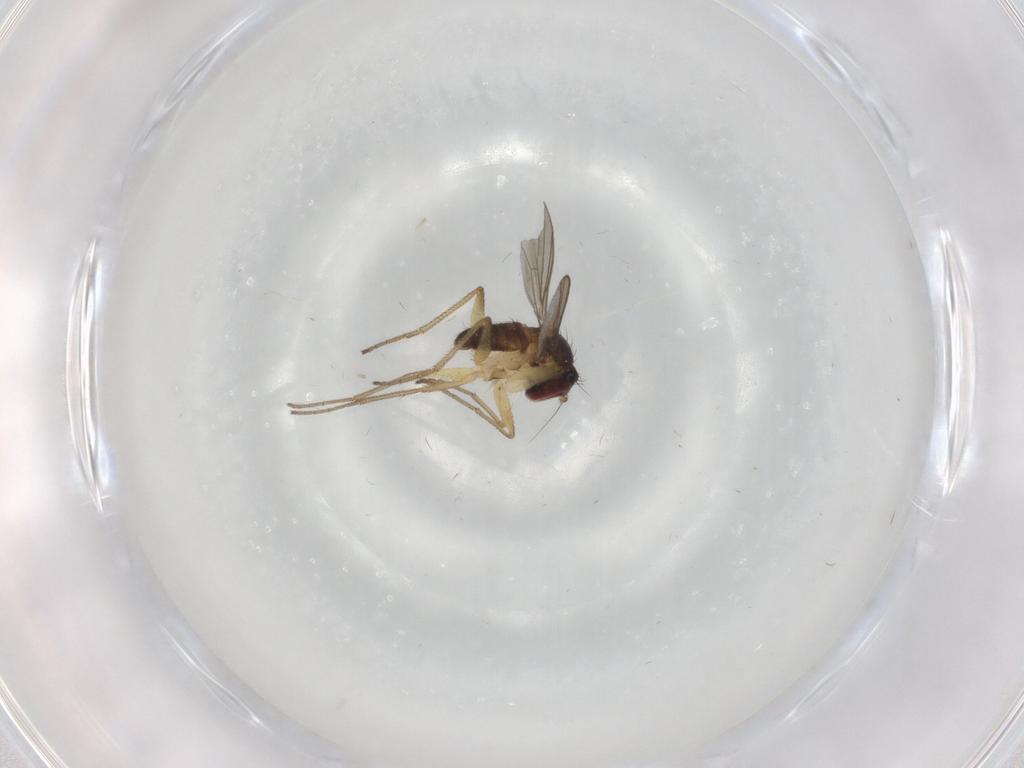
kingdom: Animalia
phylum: Arthropoda
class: Insecta
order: Diptera
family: Dolichopodidae
